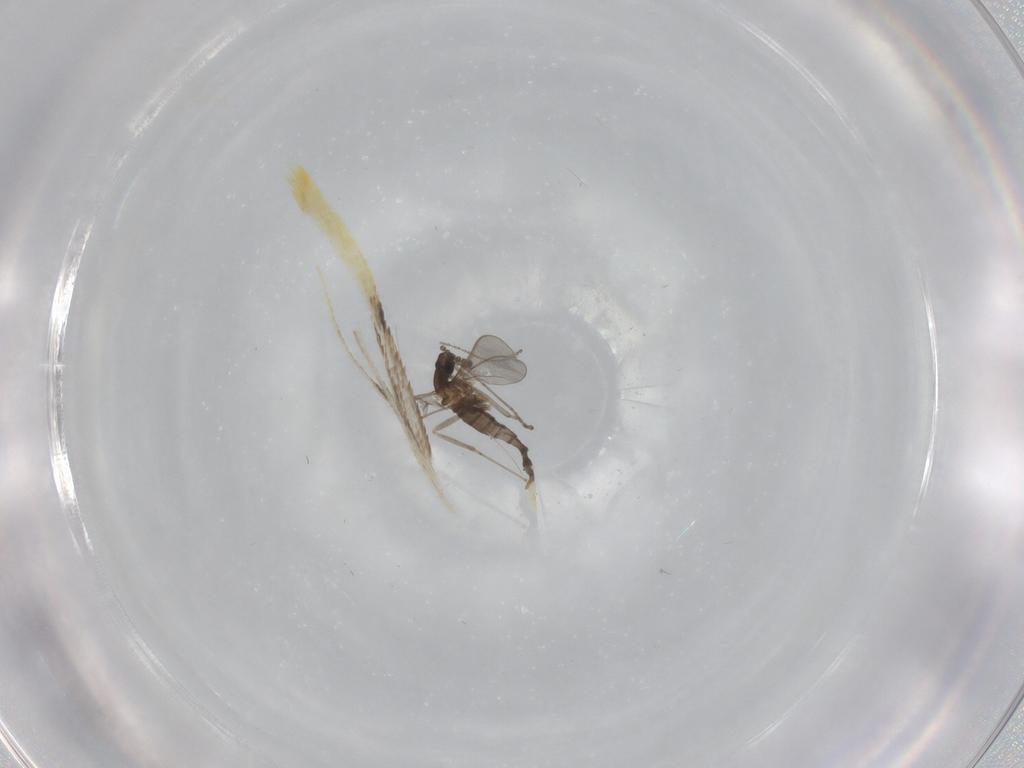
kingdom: Animalia
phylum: Arthropoda
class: Insecta
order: Diptera
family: Cecidomyiidae
